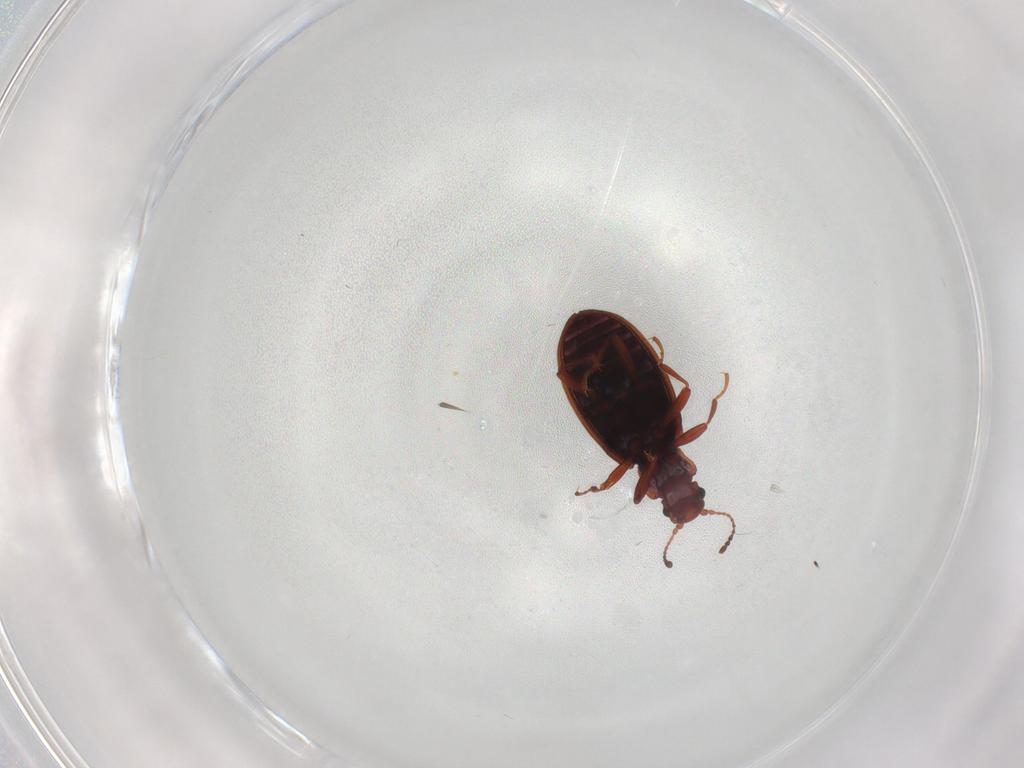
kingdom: Animalia
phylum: Arthropoda
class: Insecta
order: Coleoptera
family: Latridiidae
